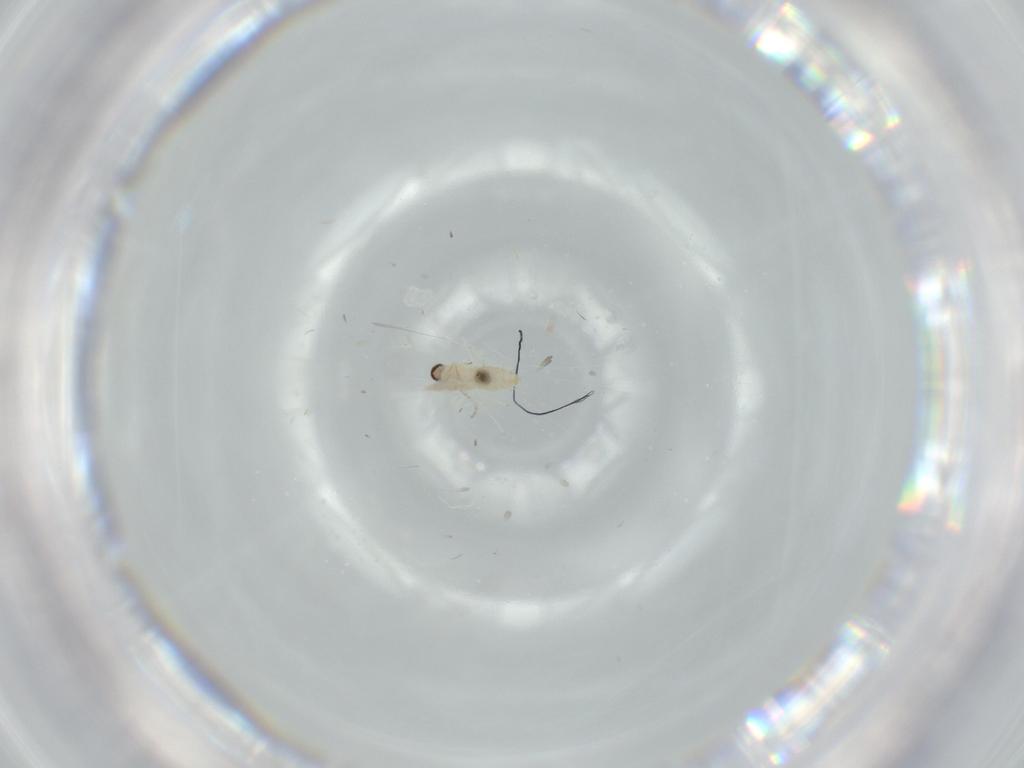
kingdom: Animalia
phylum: Arthropoda
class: Insecta
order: Diptera
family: Cecidomyiidae
